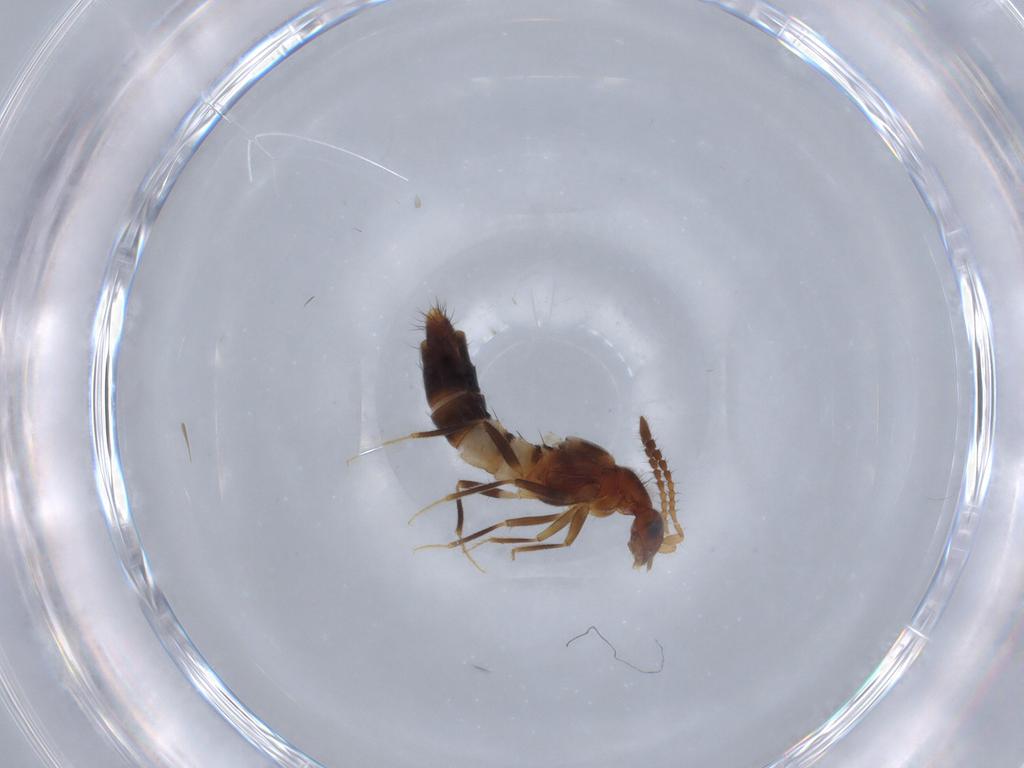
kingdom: Animalia
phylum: Arthropoda
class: Insecta
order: Coleoptera
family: Staphylinidae
